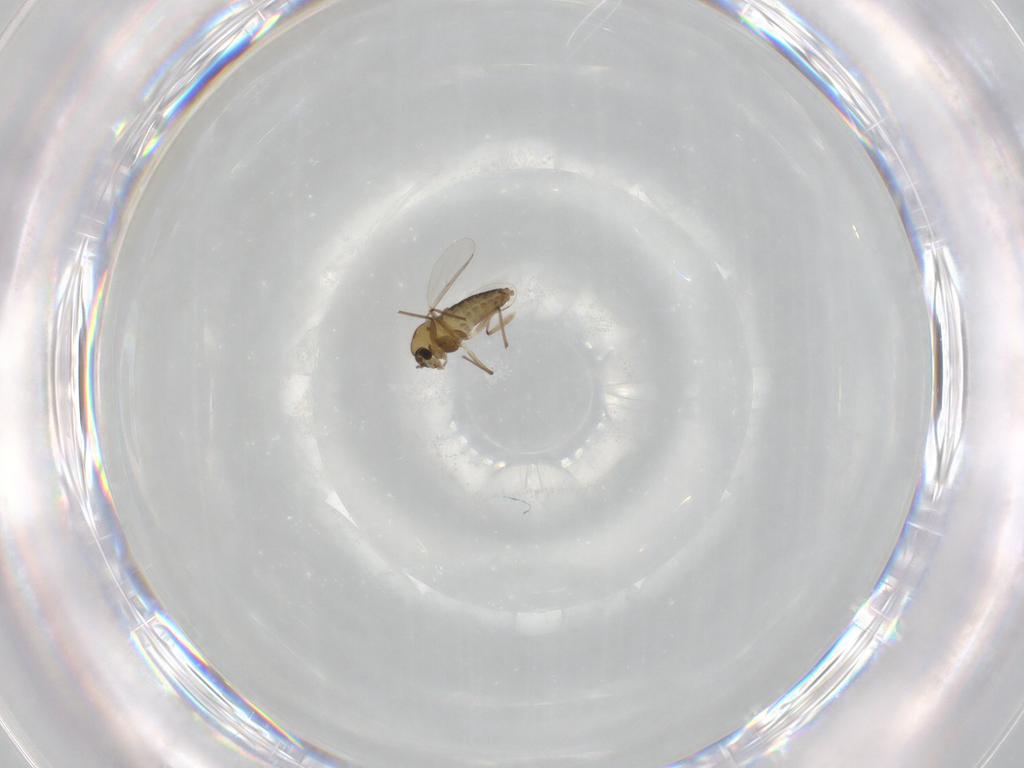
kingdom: Animalia
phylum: Arthropoda
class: Insecta
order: Diptera
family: Chironomidae
